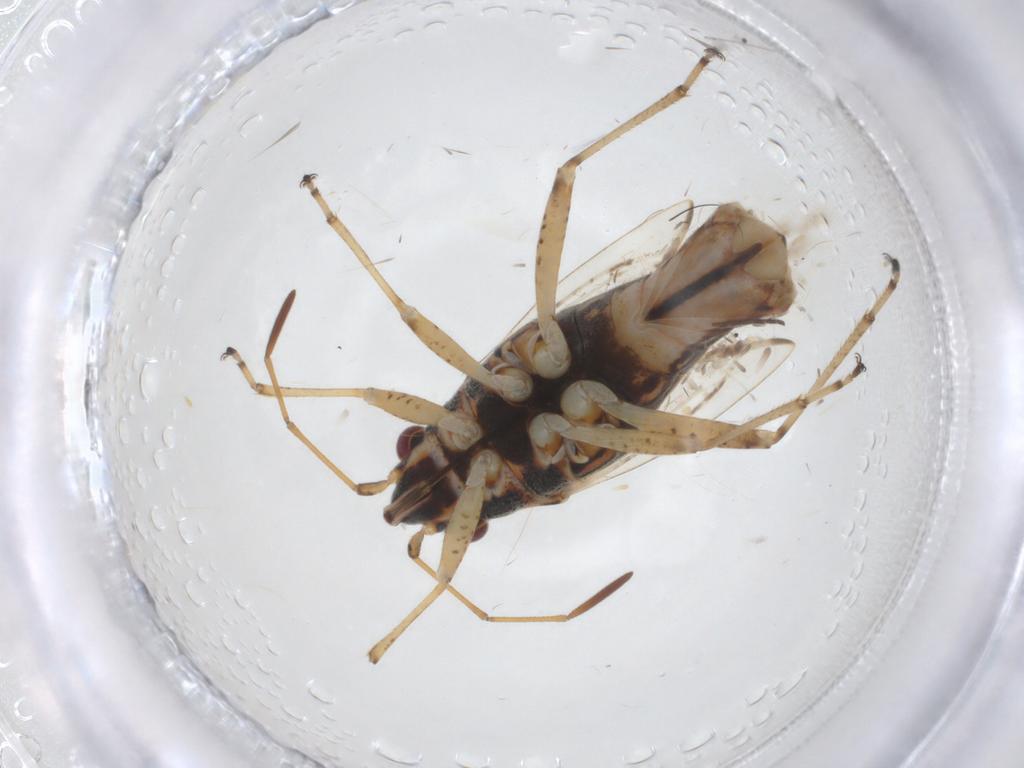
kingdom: Animalia
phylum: Arthropoda
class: Insecta
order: Hemiptera
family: Lygaeidae
